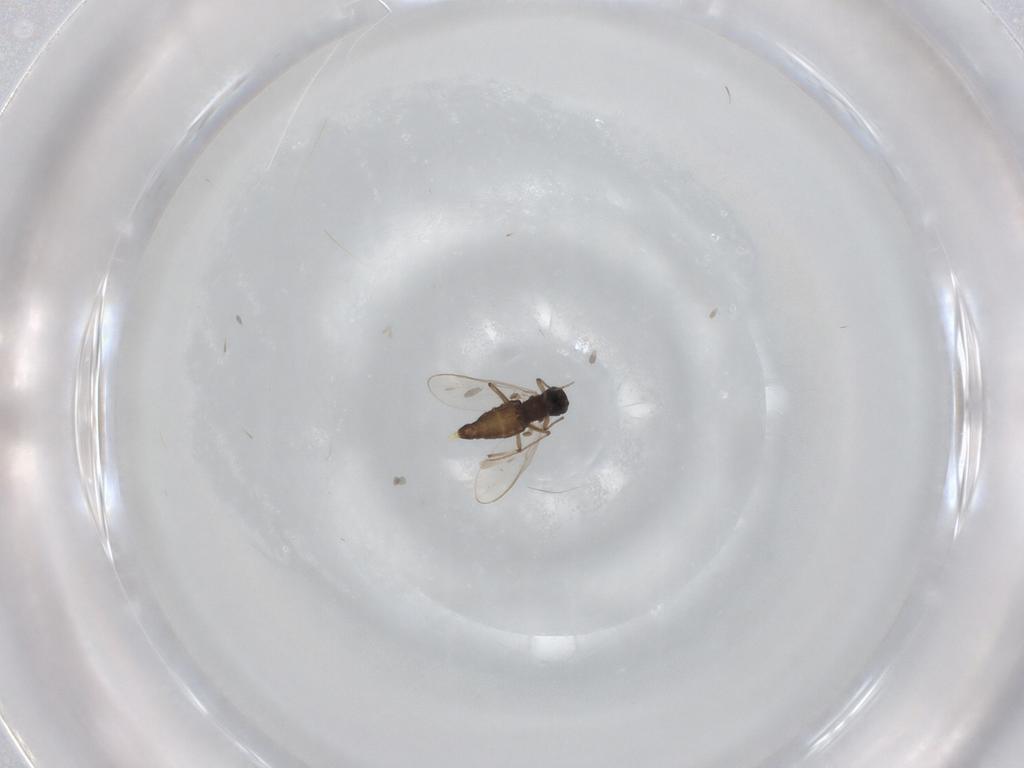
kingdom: Animalia
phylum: Arthropoda
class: Insecta
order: Diptera
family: Chironomidae
